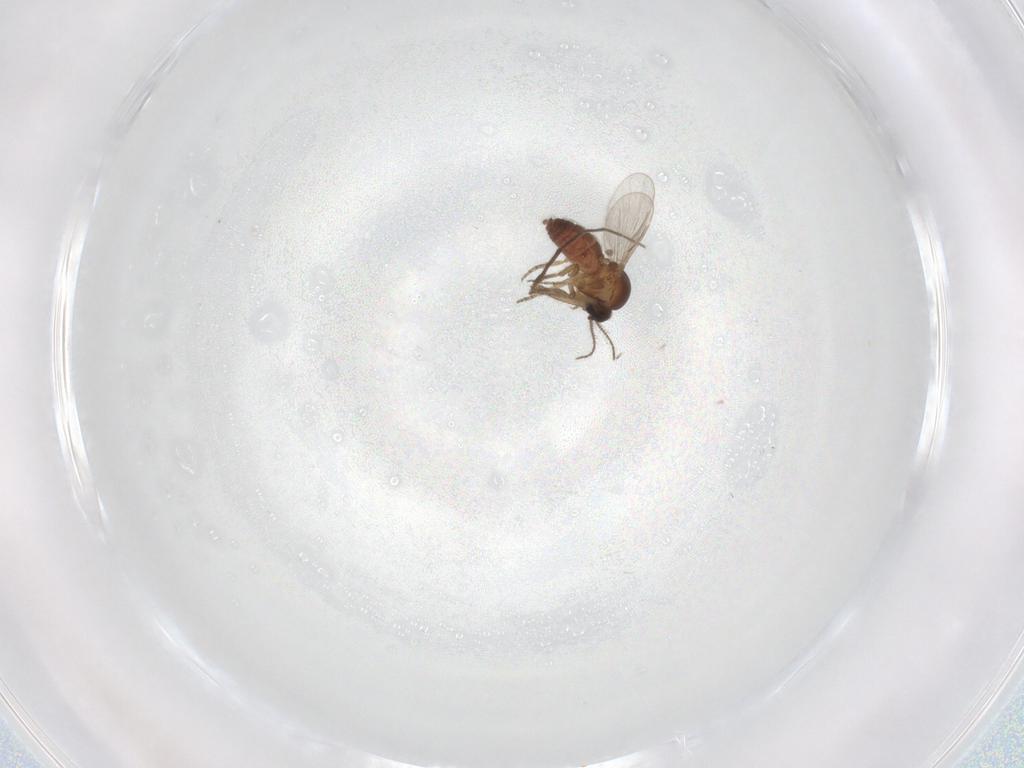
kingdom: Animalia
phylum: Arthropoda
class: Insecta
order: Diptera
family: Chironomidae
